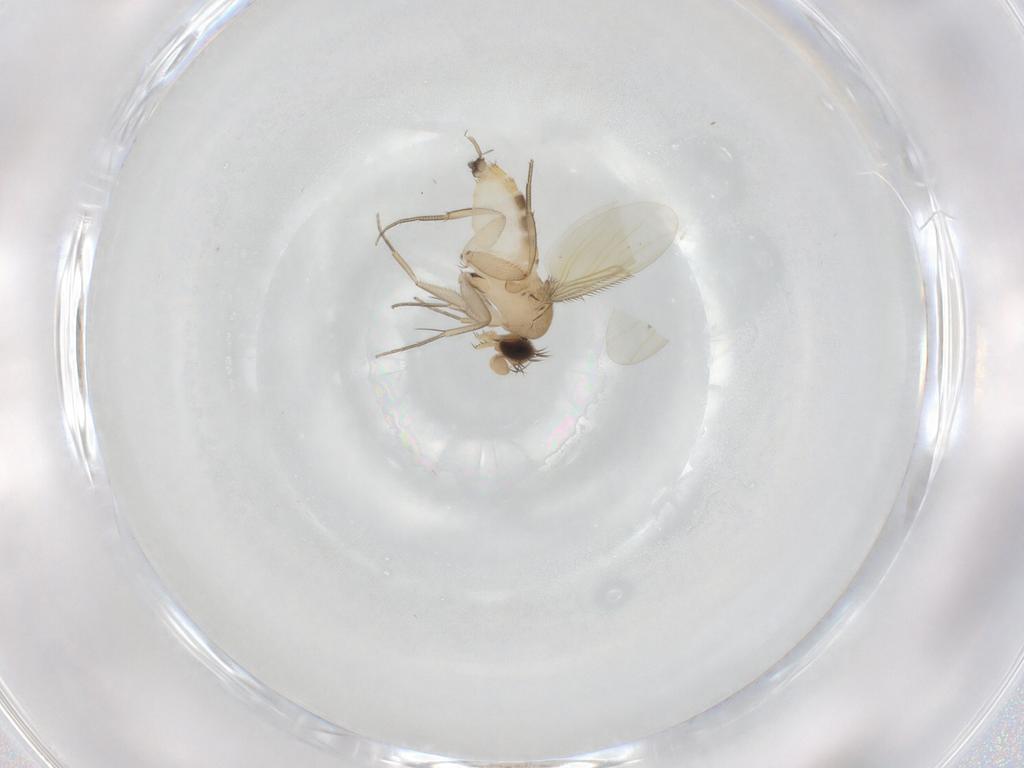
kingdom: Animalia
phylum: Arthropoda
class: Insecta
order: Diptera
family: Phoridae
